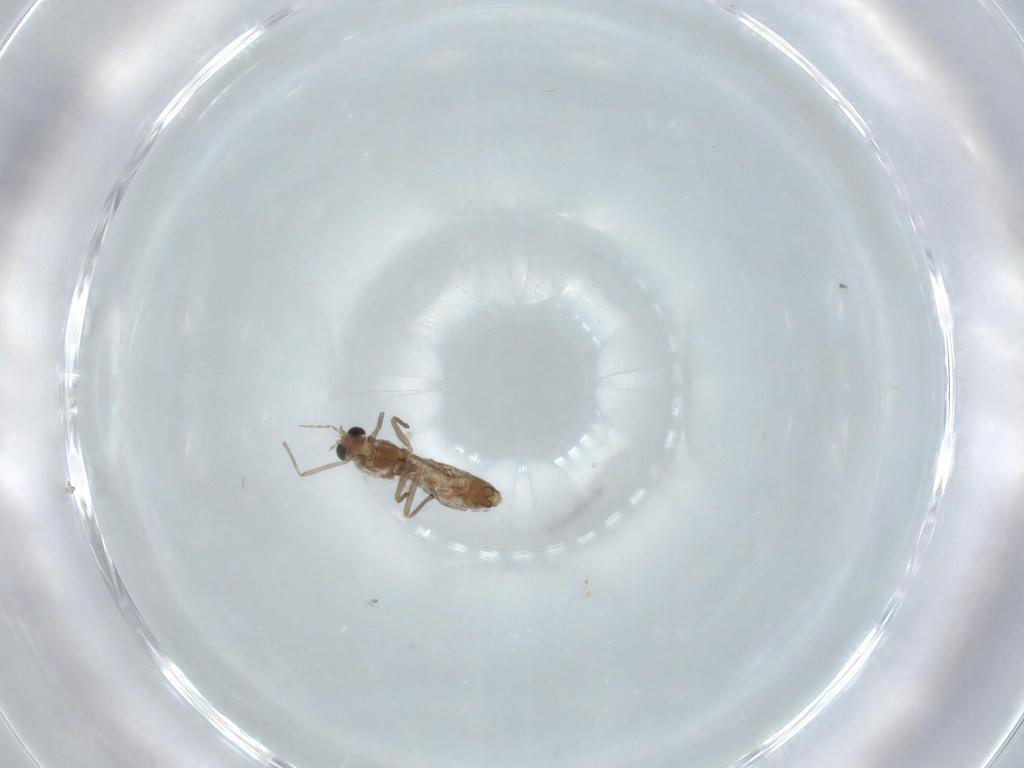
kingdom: Animalia
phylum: Arthropoda
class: Insecta
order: Diptera
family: Chironomidae
